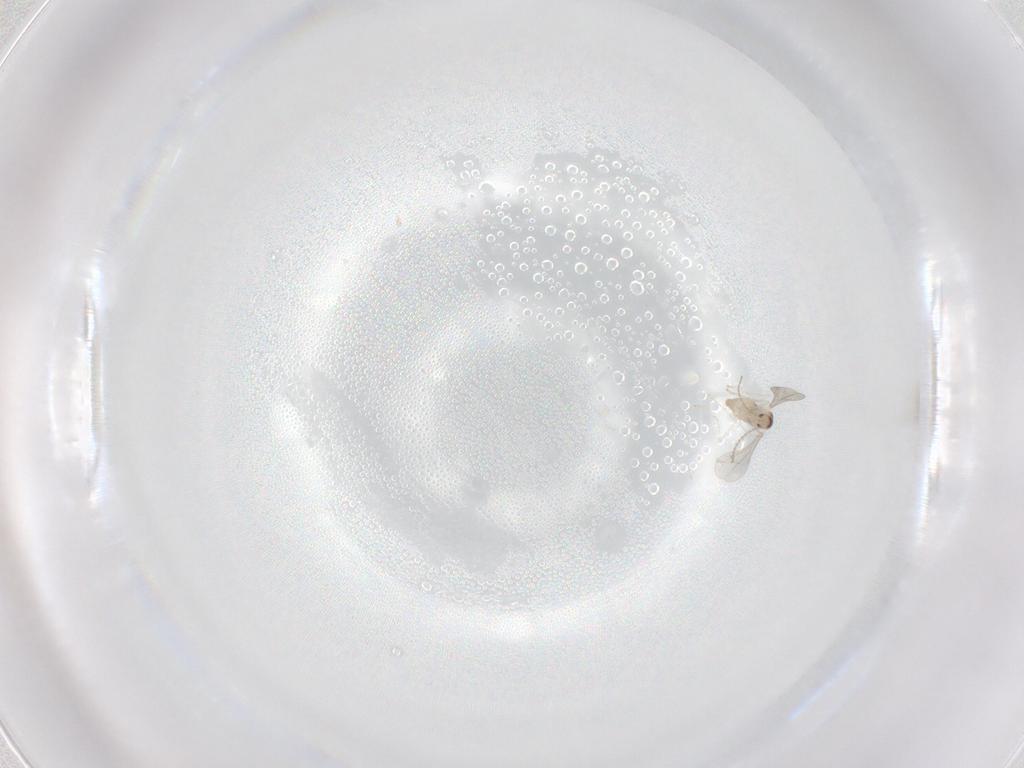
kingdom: Animalia
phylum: Arthropoda
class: Insecta
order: Diptera
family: Cecidomyiidae
